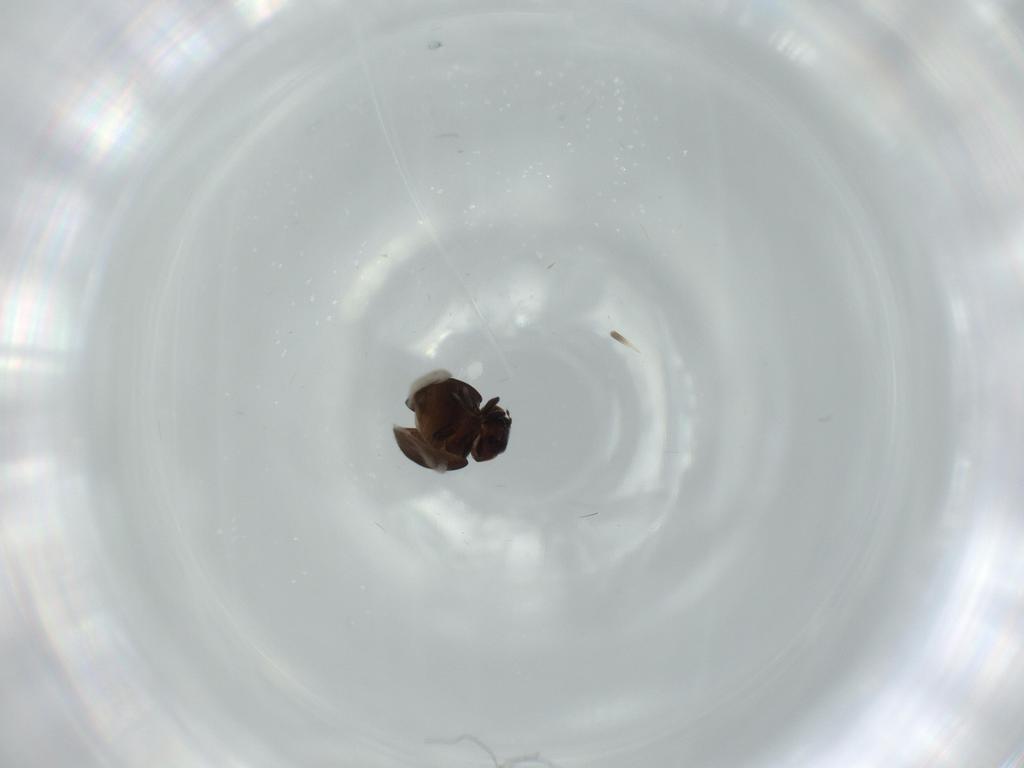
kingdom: Animalia
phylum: Arthropoda
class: Insecta
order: Coleoptera
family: Coccinellidae
